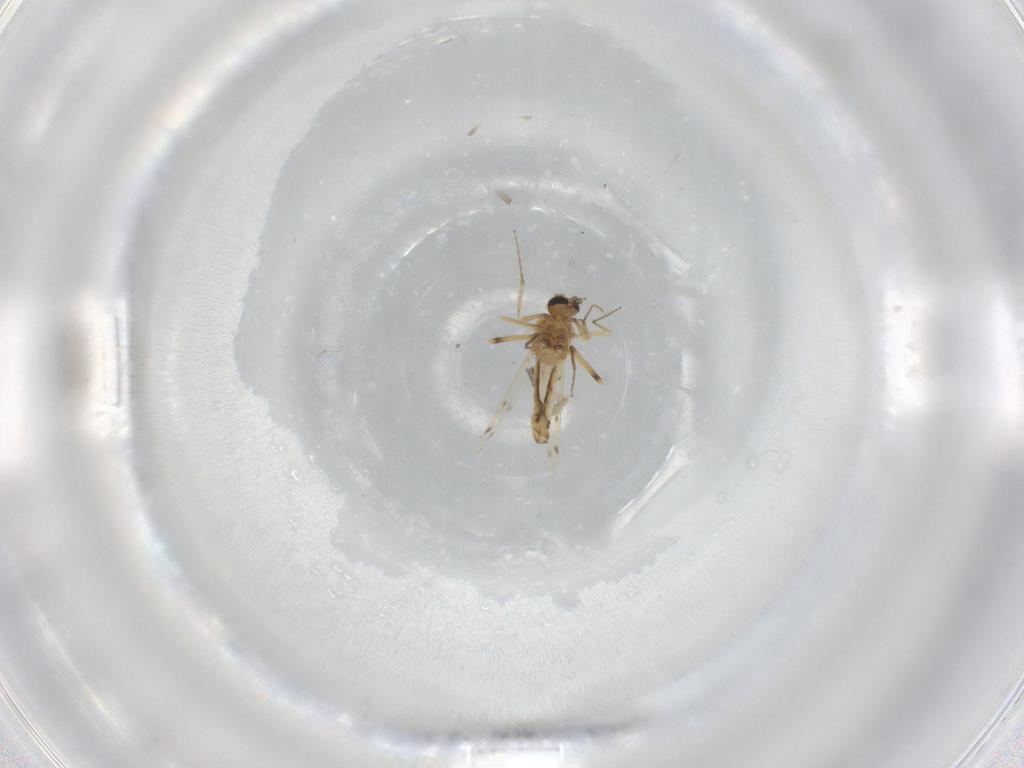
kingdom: Animalia
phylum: Arthropoda
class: Insecta
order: Diptera
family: Ceratopogonidae
